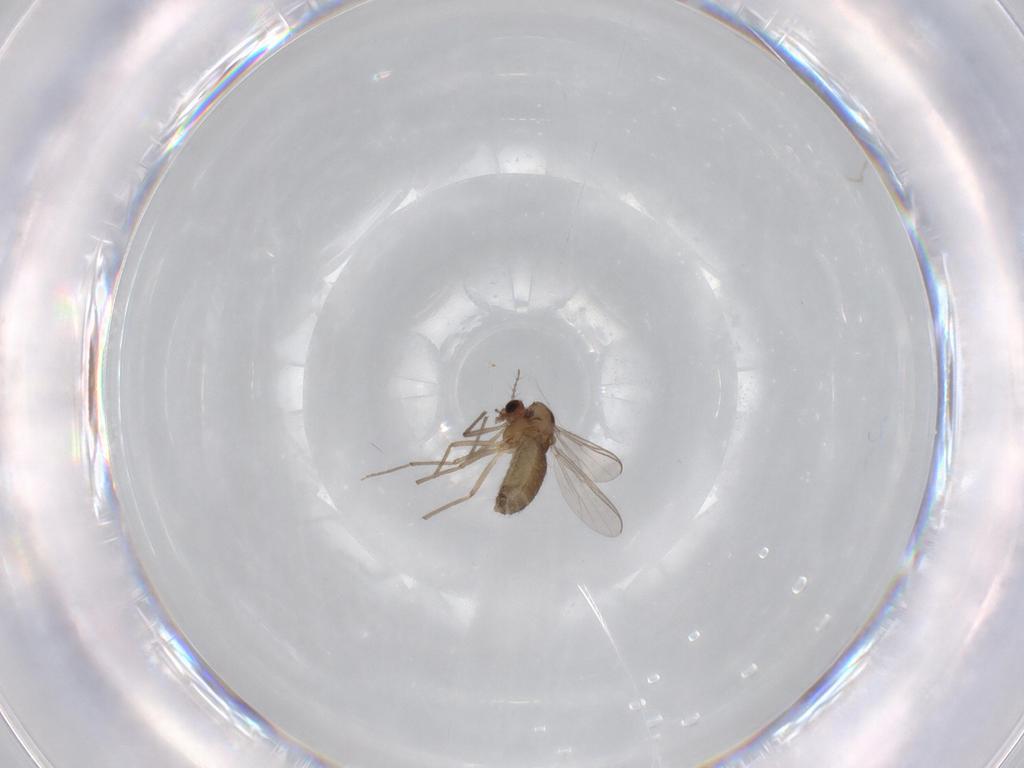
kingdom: Animalia
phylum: Arthropoda
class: Insecta
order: Diptera
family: Chironomidae
